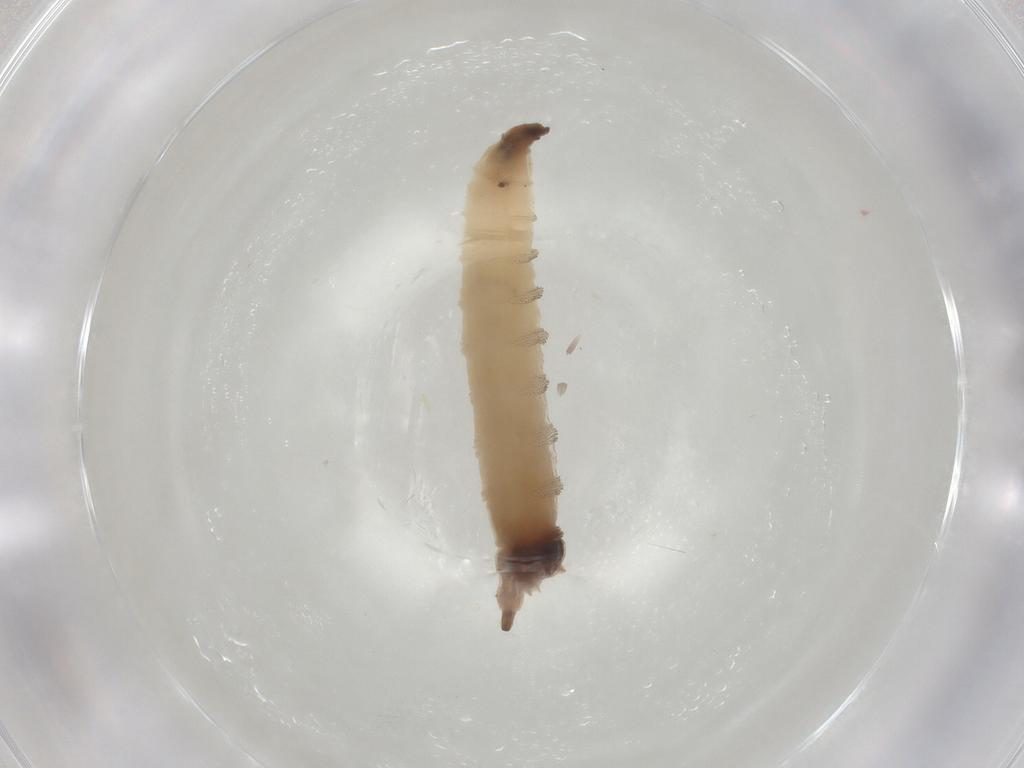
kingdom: Animalia
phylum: Arthropoda
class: Insecta
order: Diptera
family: Drosophilidae
